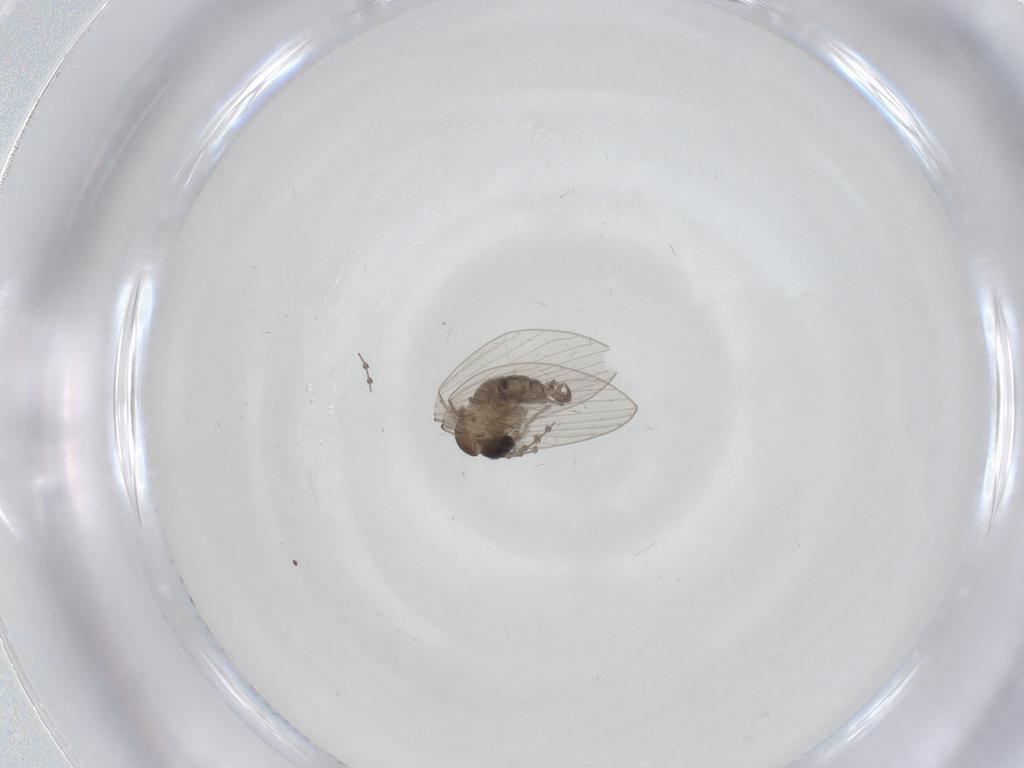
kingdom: Animalia
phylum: Arthropoda
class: Insecta
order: Diptera
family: Psychodidae
